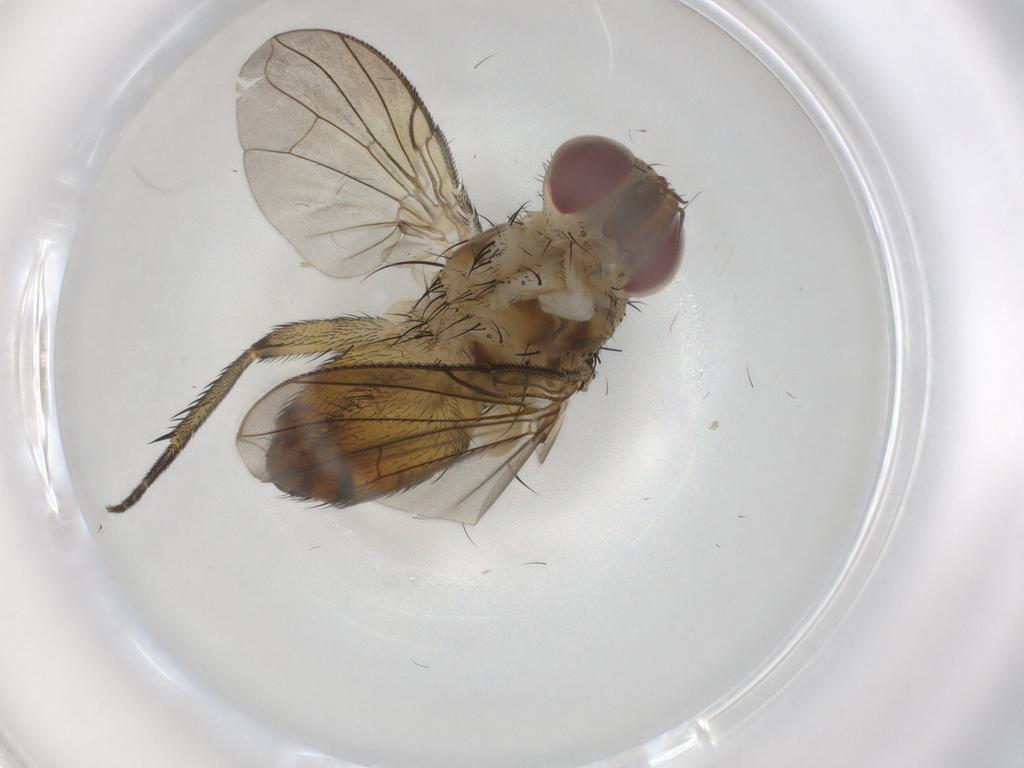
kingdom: Animalia
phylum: Arthropoda
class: Insecta
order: Diptera
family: Tachinidae
